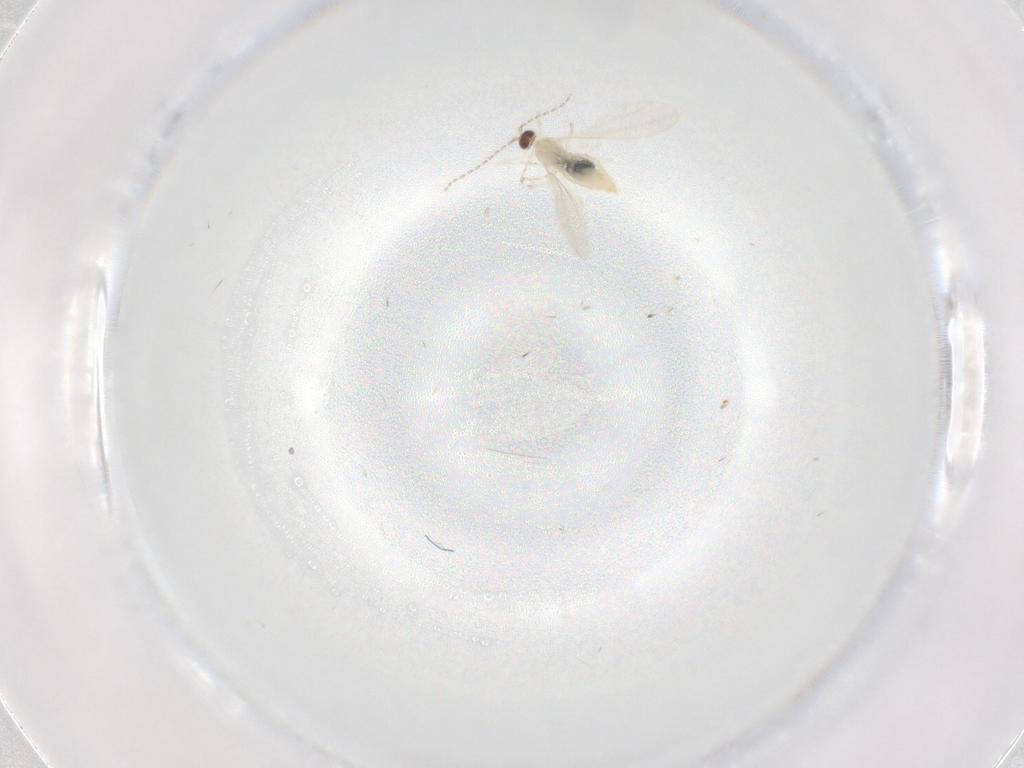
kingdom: Animalia
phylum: Arthropoda
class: Insecta
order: Diptera
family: Cecidomyiidae
